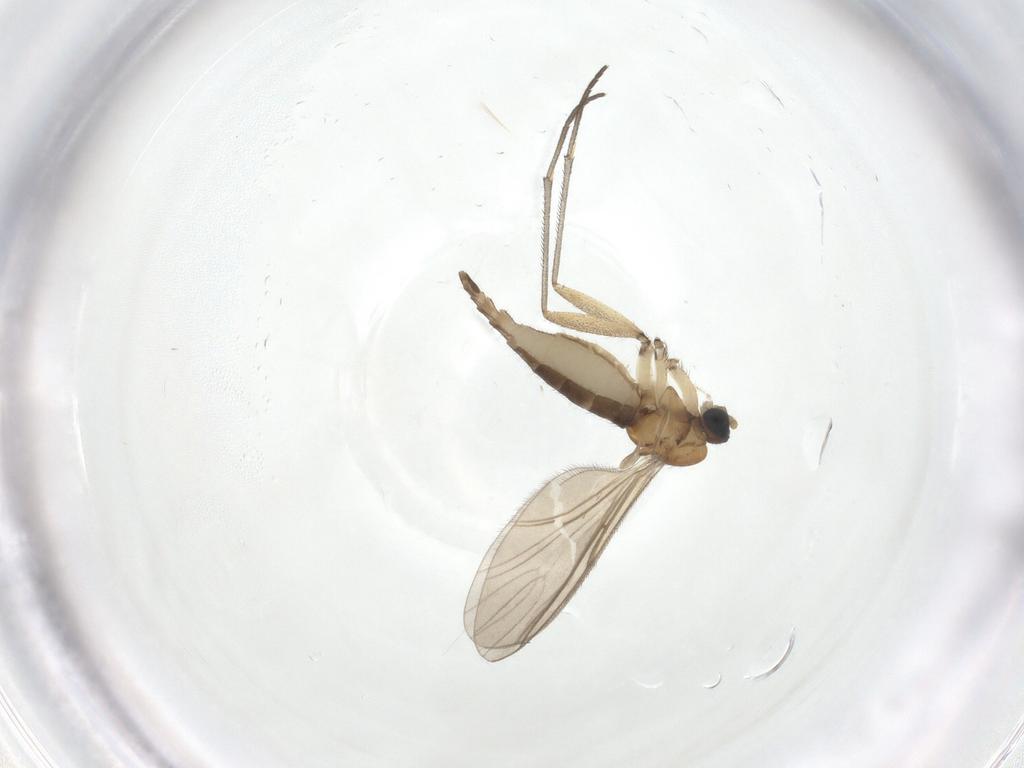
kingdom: Animalia
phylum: Arthropoda
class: Insecta
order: Diptera
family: Sciaridae
